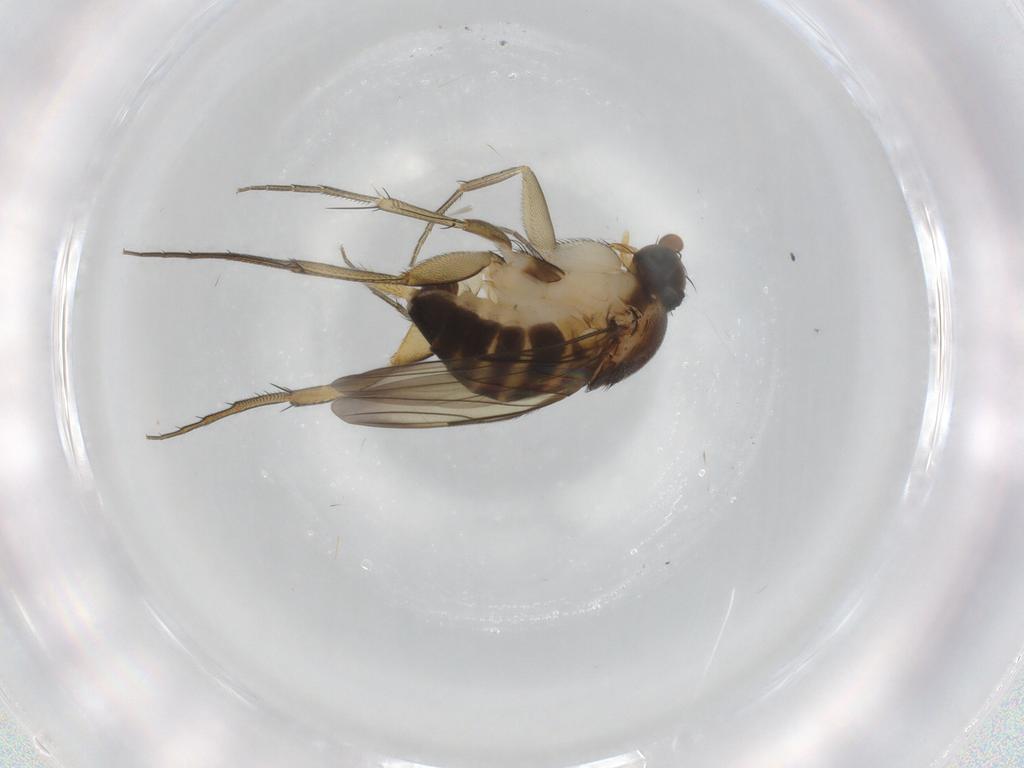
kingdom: Animalia
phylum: Arthropoda
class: Insecta
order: Diptera
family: Phoridae
